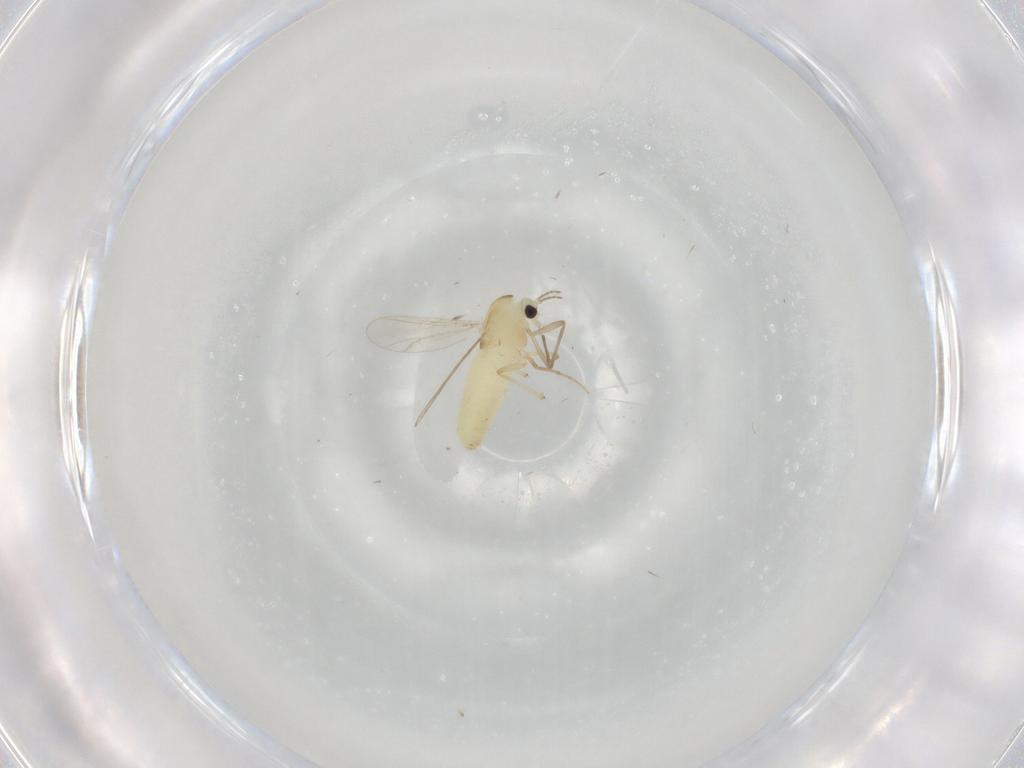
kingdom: Animalia
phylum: Arthropoda
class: Insecta
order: Diptera
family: Chironomidae
